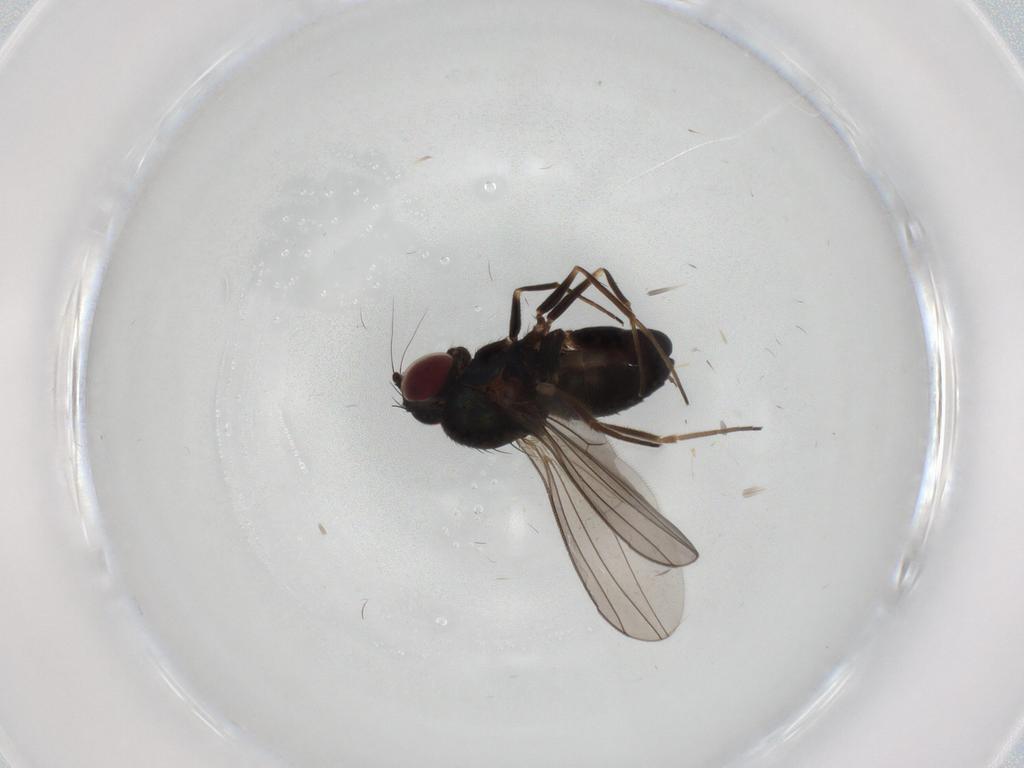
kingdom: Animalia
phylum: Arthropoda
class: Insecta
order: Diptera
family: Dolichopodidae
